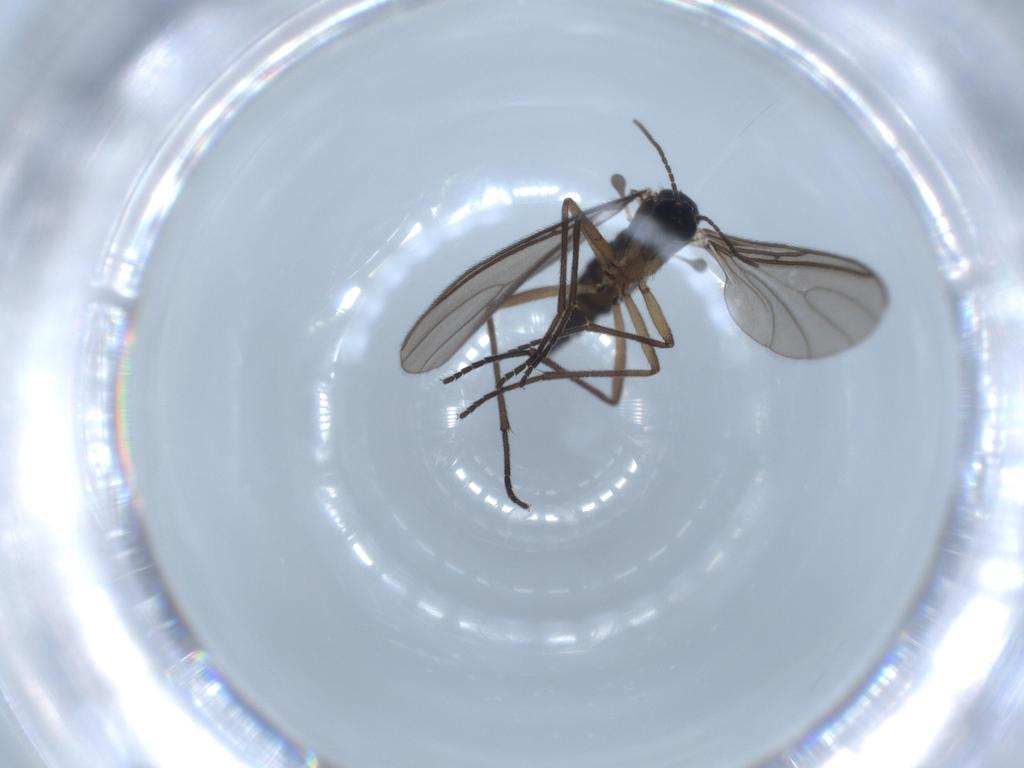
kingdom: Animalia
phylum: Arthropoda
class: Insecta
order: Diptera
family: Sciaridae
